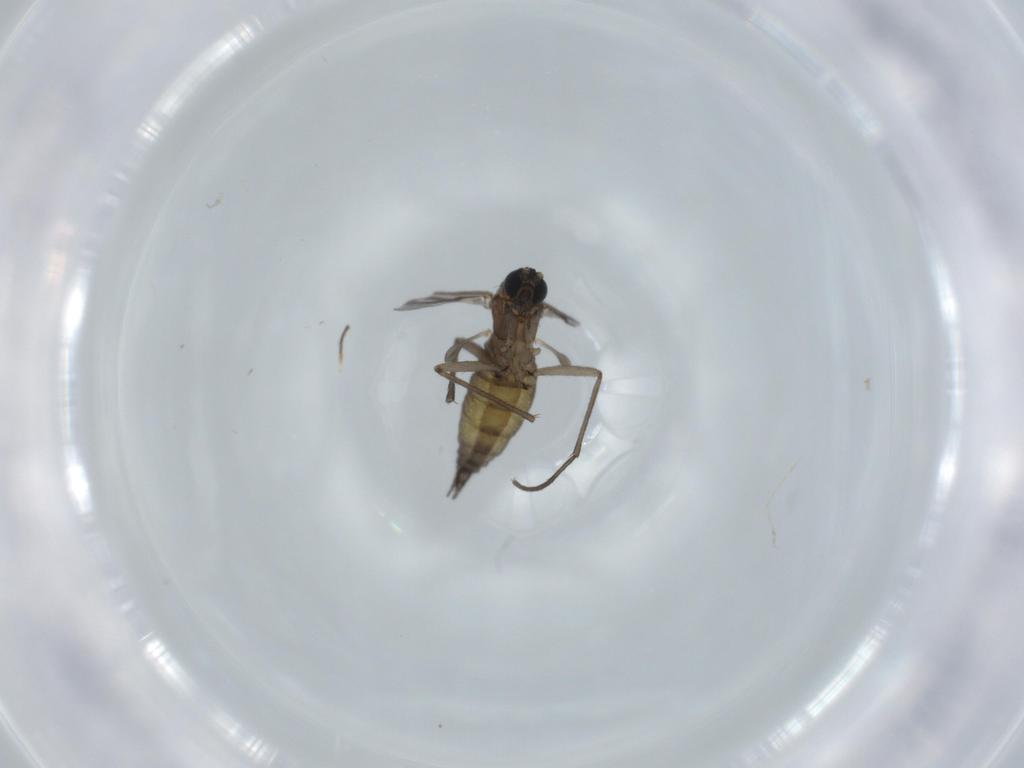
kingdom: Animalia
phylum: Arthropoda
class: Insecta
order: Diptera
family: Sciaridae
